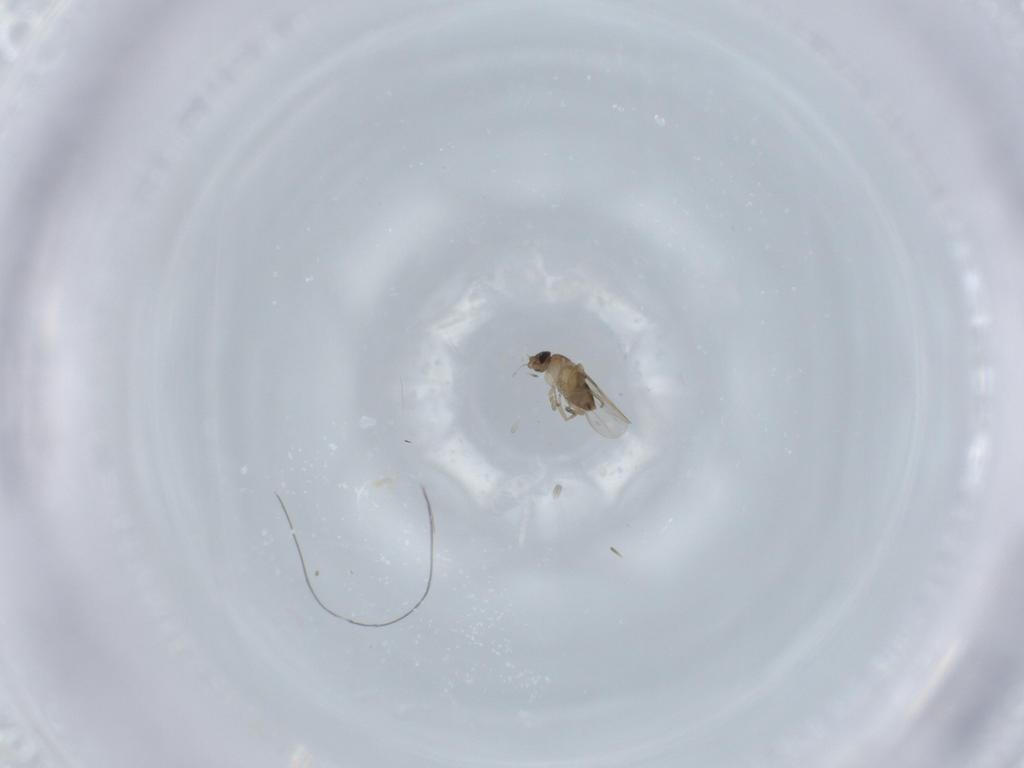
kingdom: Animalia
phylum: Arthropoda
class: Insecta
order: Diptera
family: Phoridae
